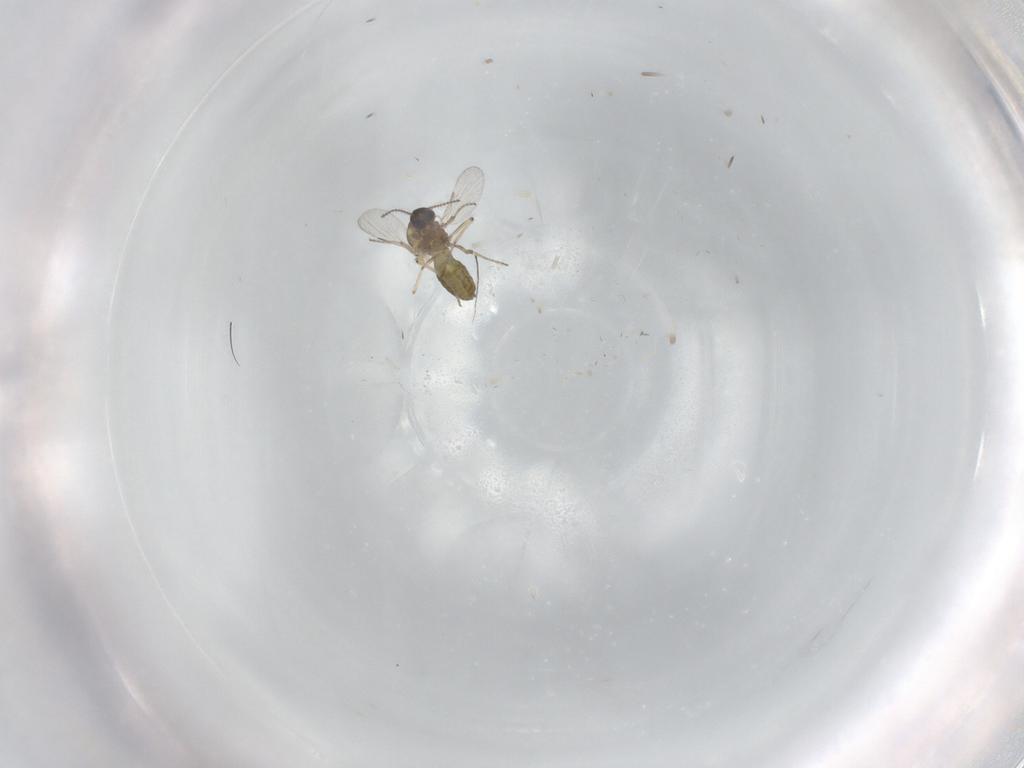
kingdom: Animalia
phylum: Arthropoda
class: Insecta
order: Diptera
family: Ceratopogonidae
